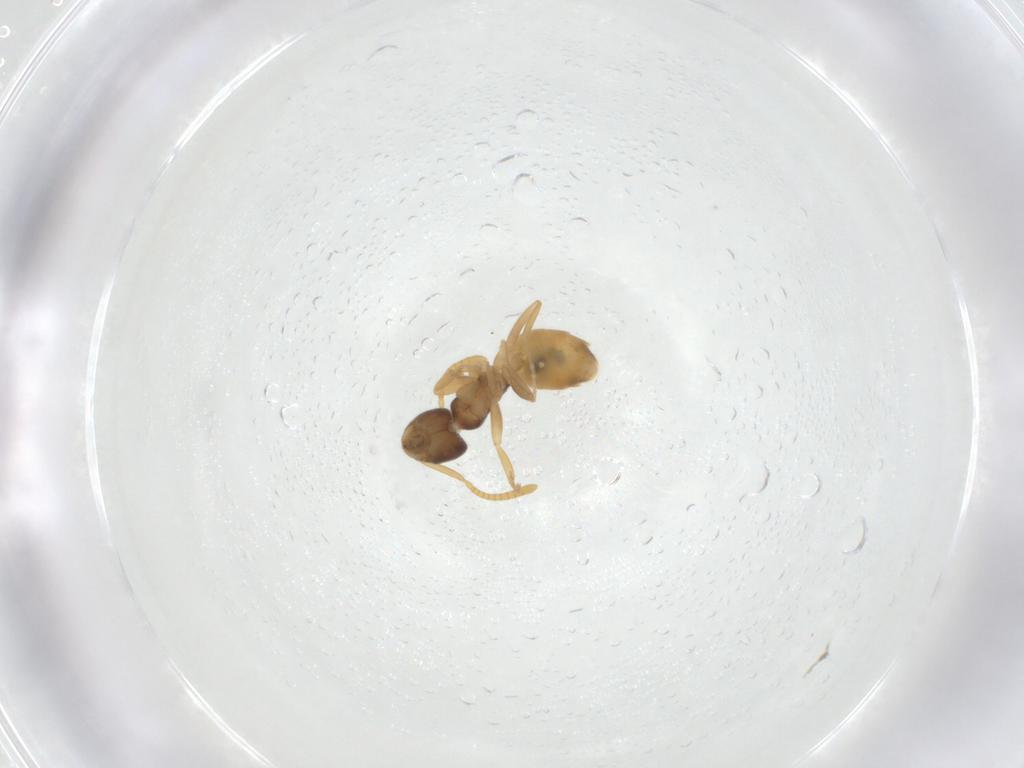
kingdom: Animalia
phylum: Arthropoda
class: Insecta
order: Hymenoptera
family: Formicidae
